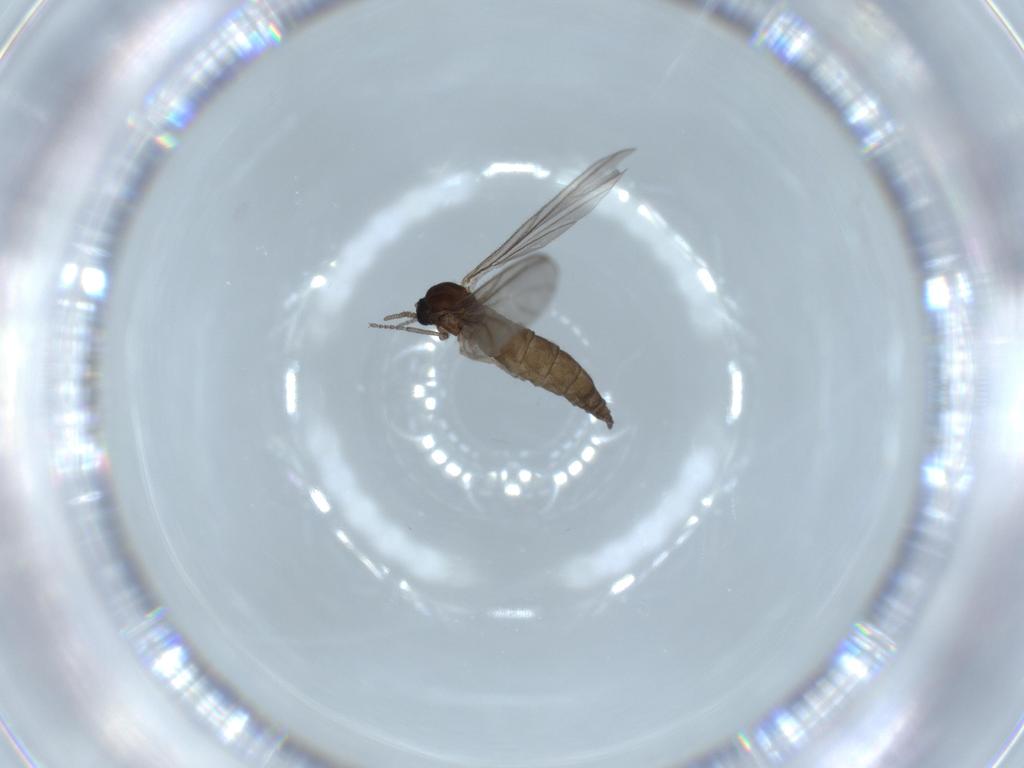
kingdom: Animalia
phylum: Arthropoda
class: Insecta
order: Diptera
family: Sciaridae
